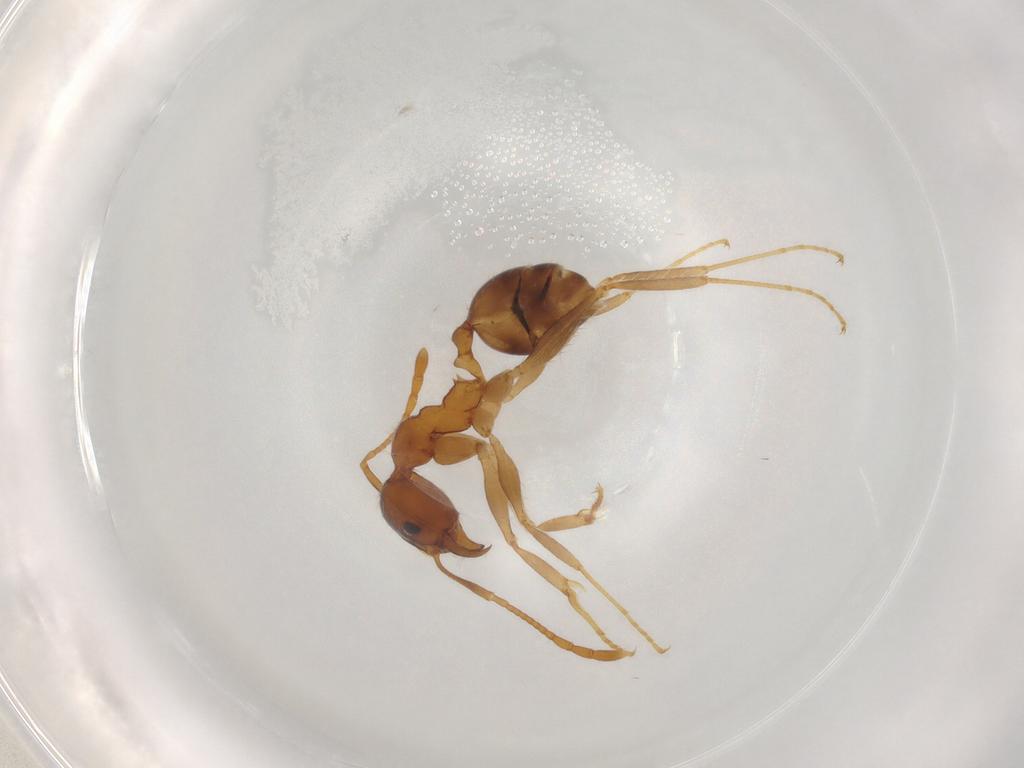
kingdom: Animalia
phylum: Arthropoda
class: Insecta
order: Hymenoptera
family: Formicidae
